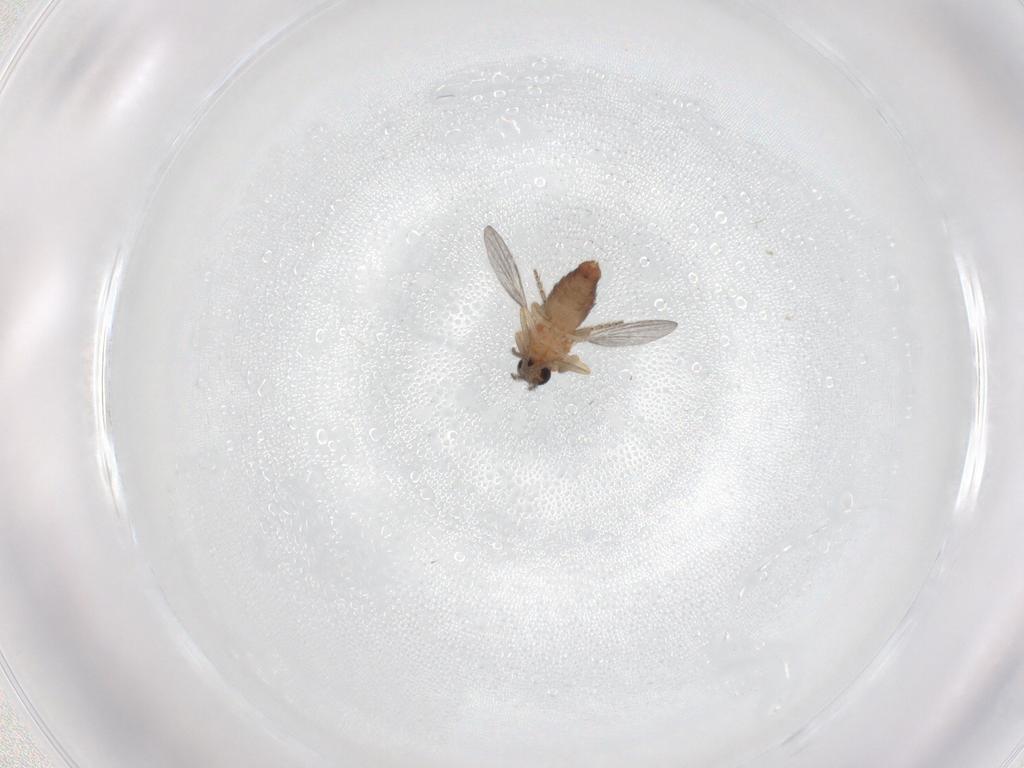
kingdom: Animalia
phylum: Arthropoda
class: Insecta
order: Diptera
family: Ceratopogonidae
